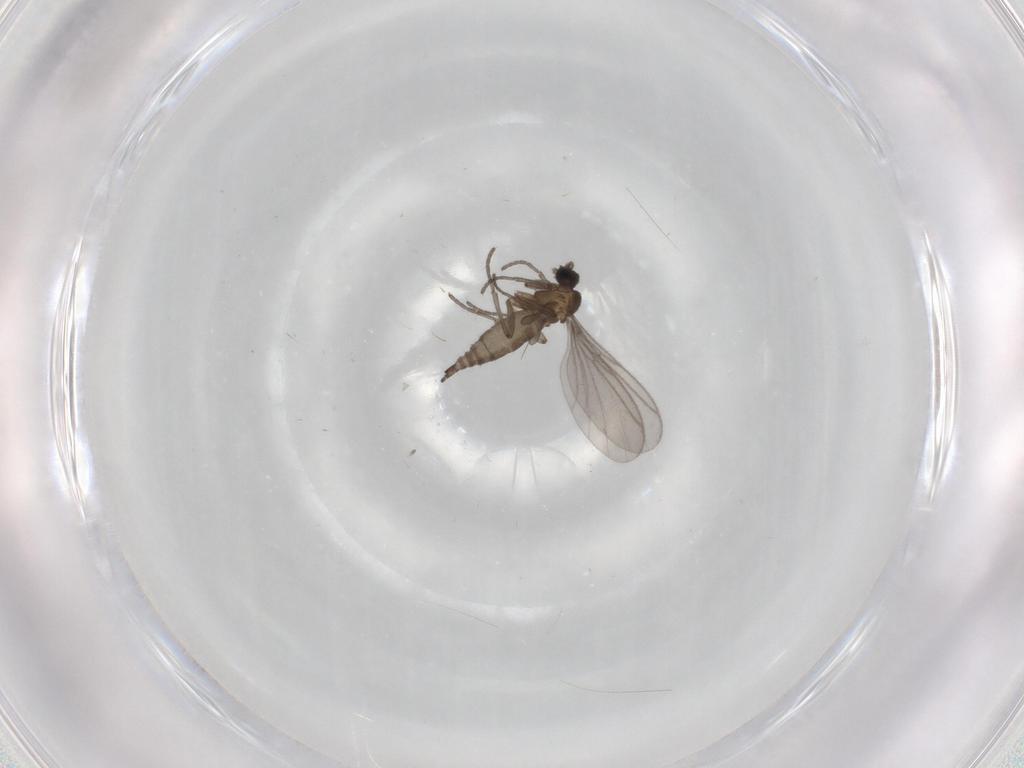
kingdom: Animalia
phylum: Arthropoda
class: Insecta
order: Diptera
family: Sciaridae
